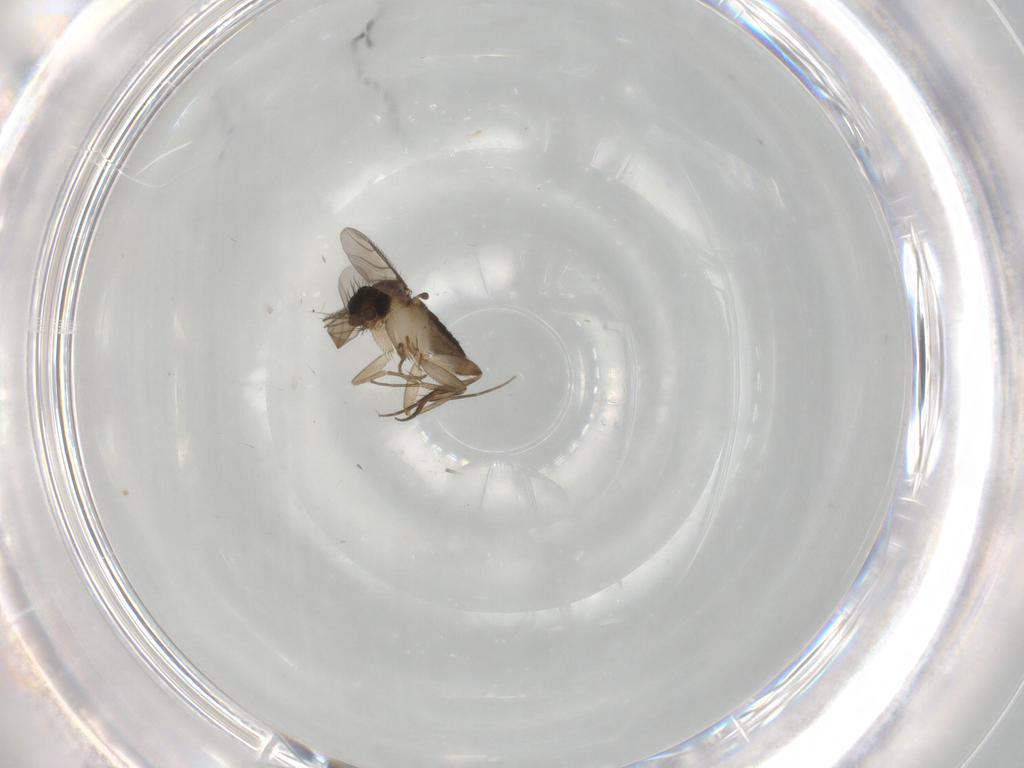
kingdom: Animalia
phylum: Arthropoda
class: Insecta
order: Diptera
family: Phoridae
